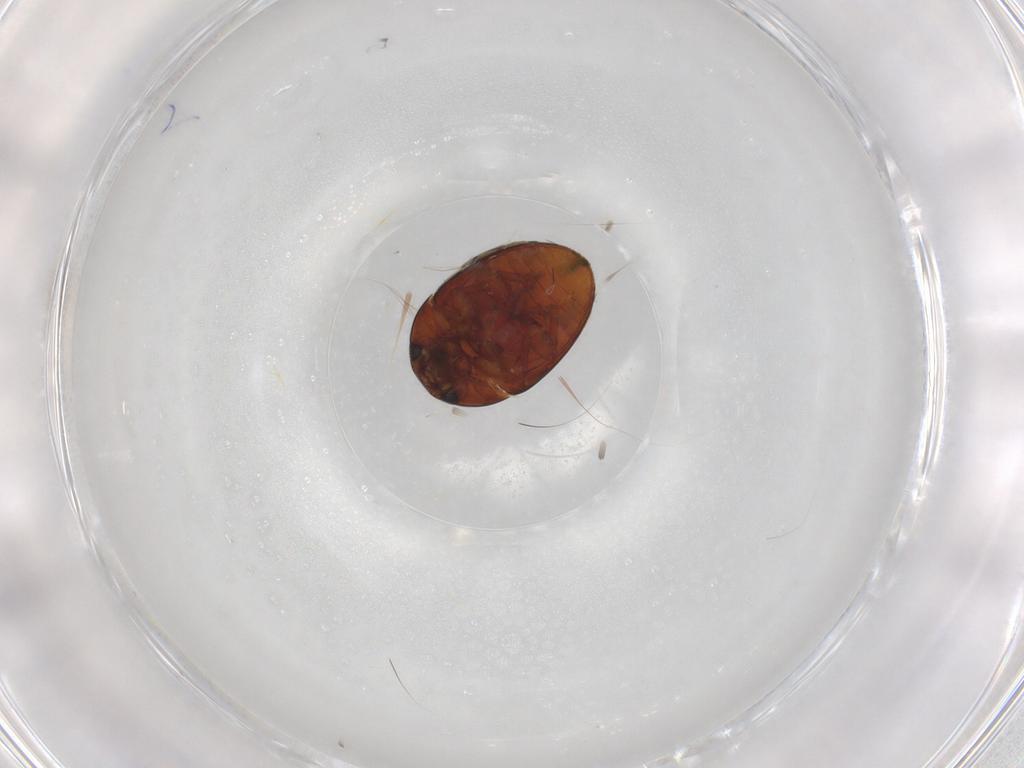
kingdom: Animalia
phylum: Arthropoda
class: Insecta
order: Coleoptera
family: Phalacridae
